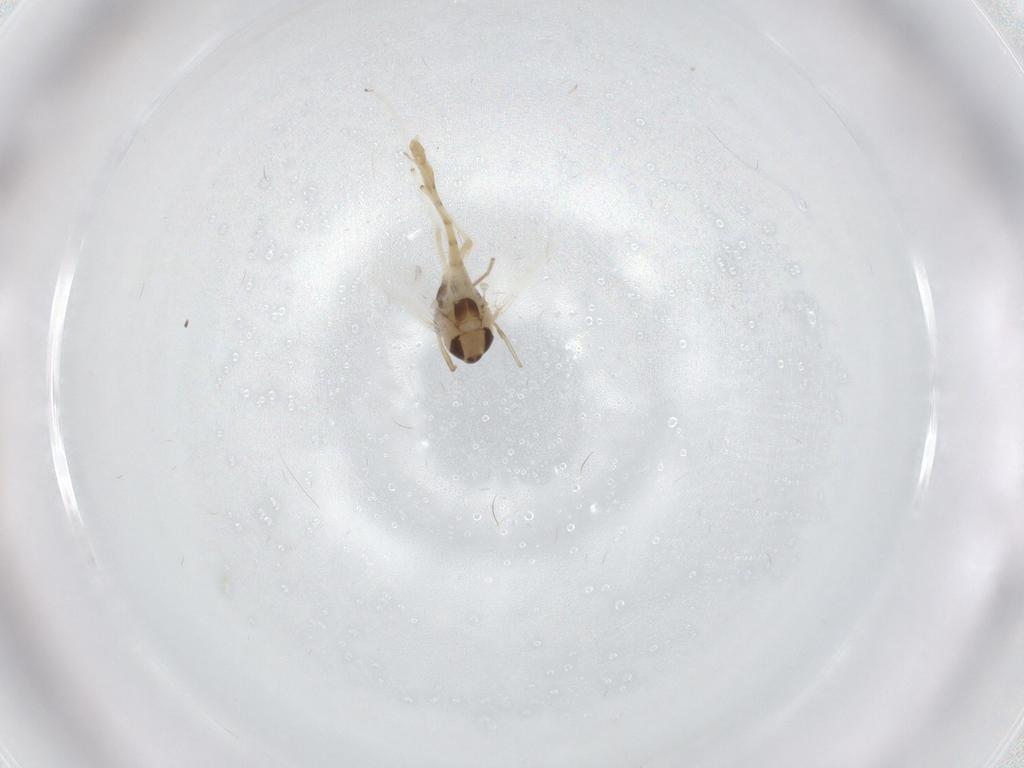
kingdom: Animalia
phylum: Arthropoda
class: Insecta
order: Diptera
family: Chironomidae
